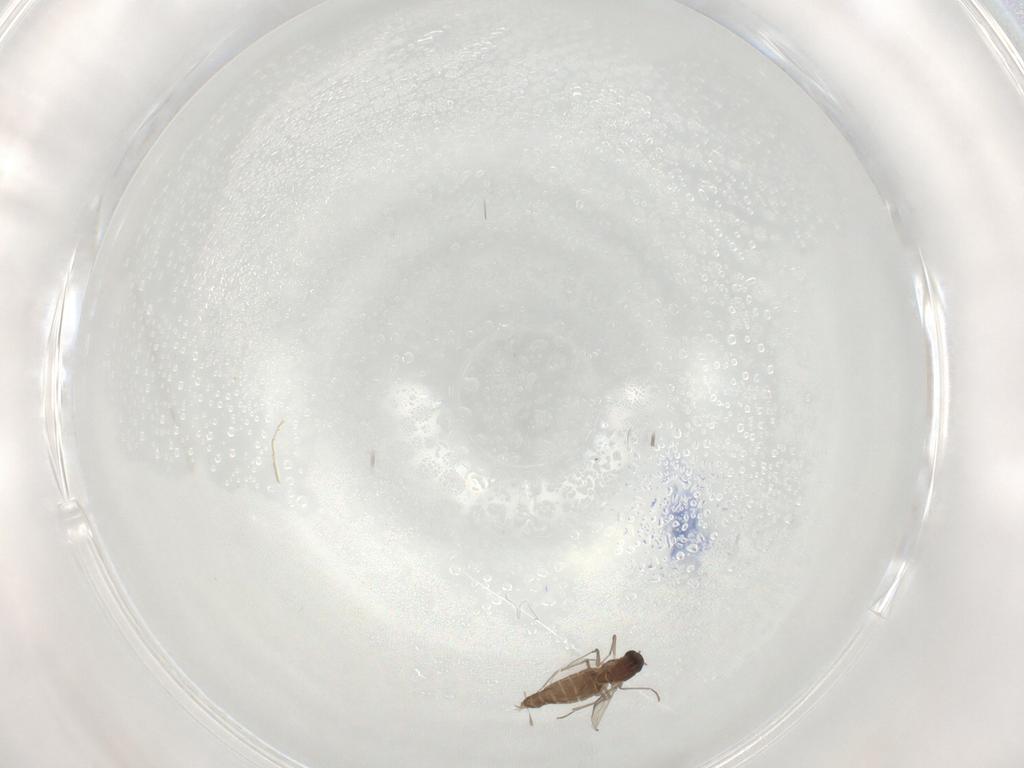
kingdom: Animalia
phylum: Arthropoda
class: Insecta
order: Diptera
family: Chironomidae
